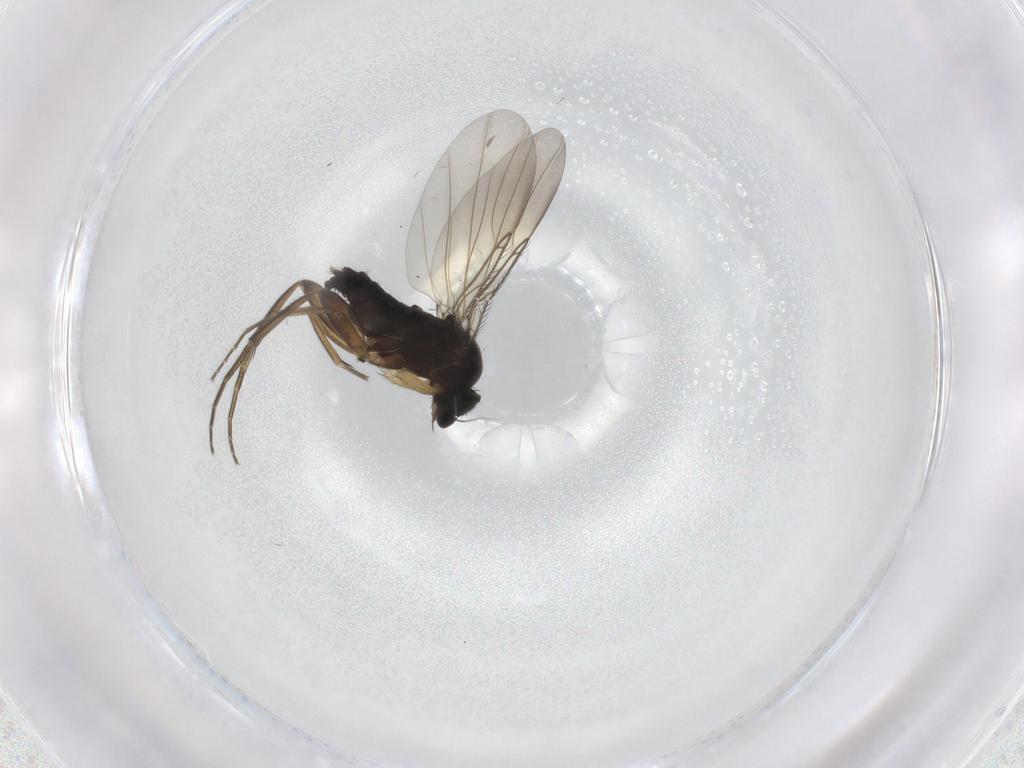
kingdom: Animalia
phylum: Arthropoda
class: Insecta
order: Diptera
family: Phoridae
